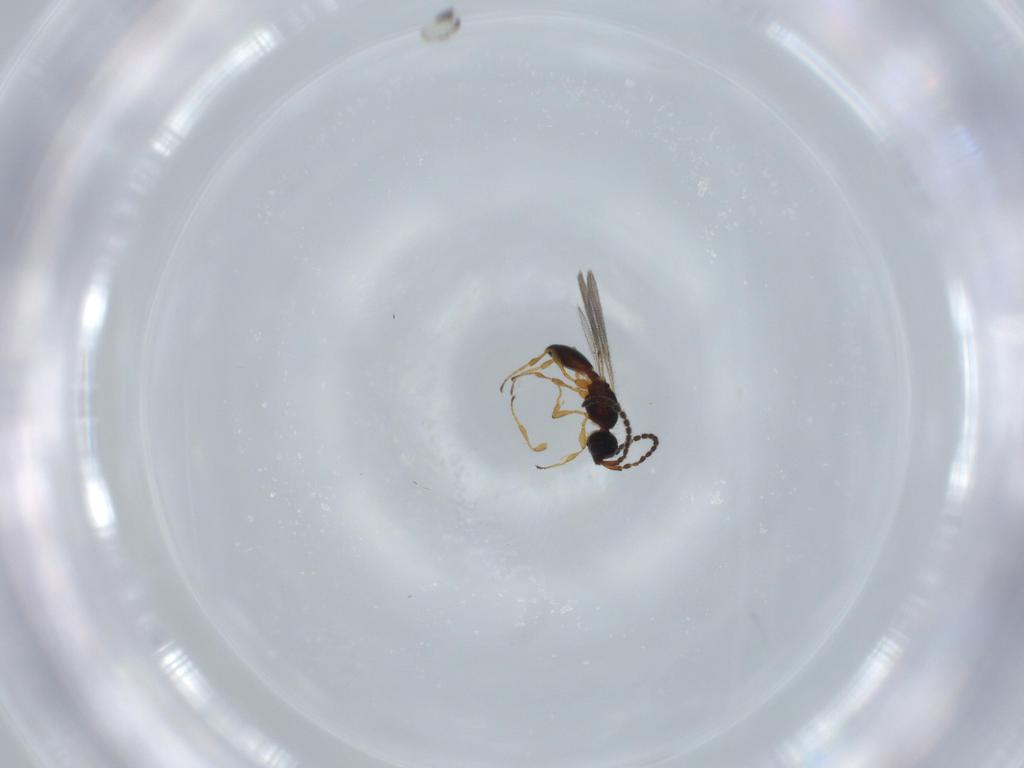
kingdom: Animalia
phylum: Arthropoda
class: Insecta
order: Hymenoptera
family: Diapriidae
